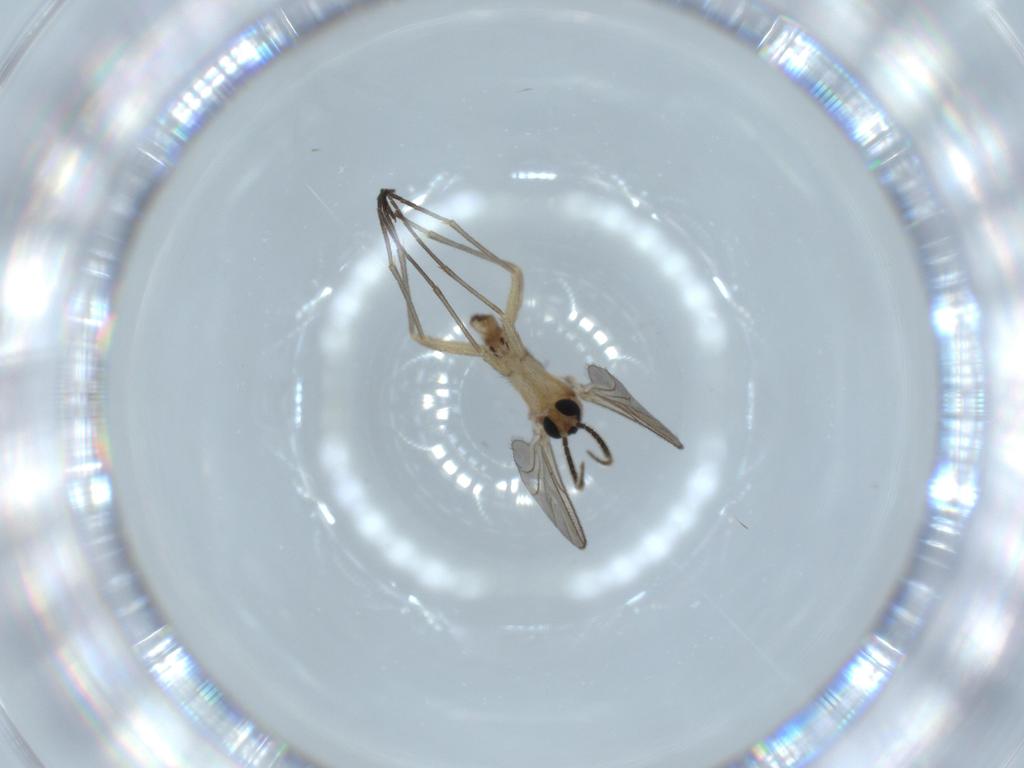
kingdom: Animalia
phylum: Arthropoda
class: Insecta
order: Diptera
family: Sciaridae
